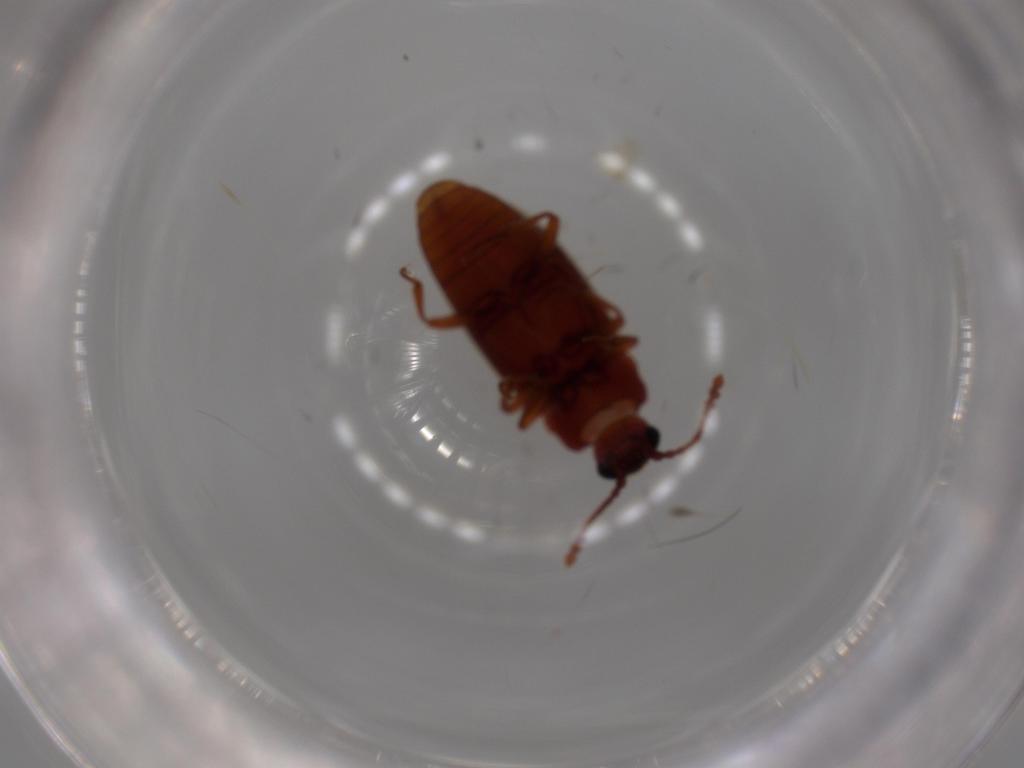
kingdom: Animalia
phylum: Arthropoda
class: Insecta
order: Coleoptera
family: Cryptophagidae
